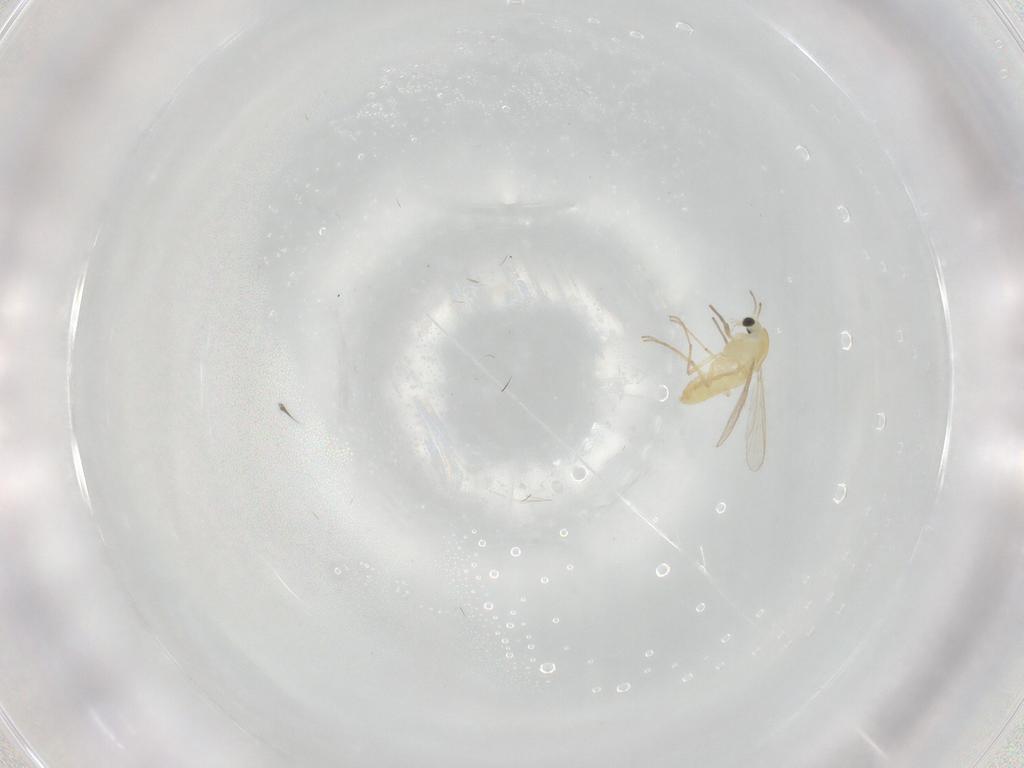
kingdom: Animalia
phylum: Arthropoda
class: Insecta
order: Diptera
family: Chironomidae
